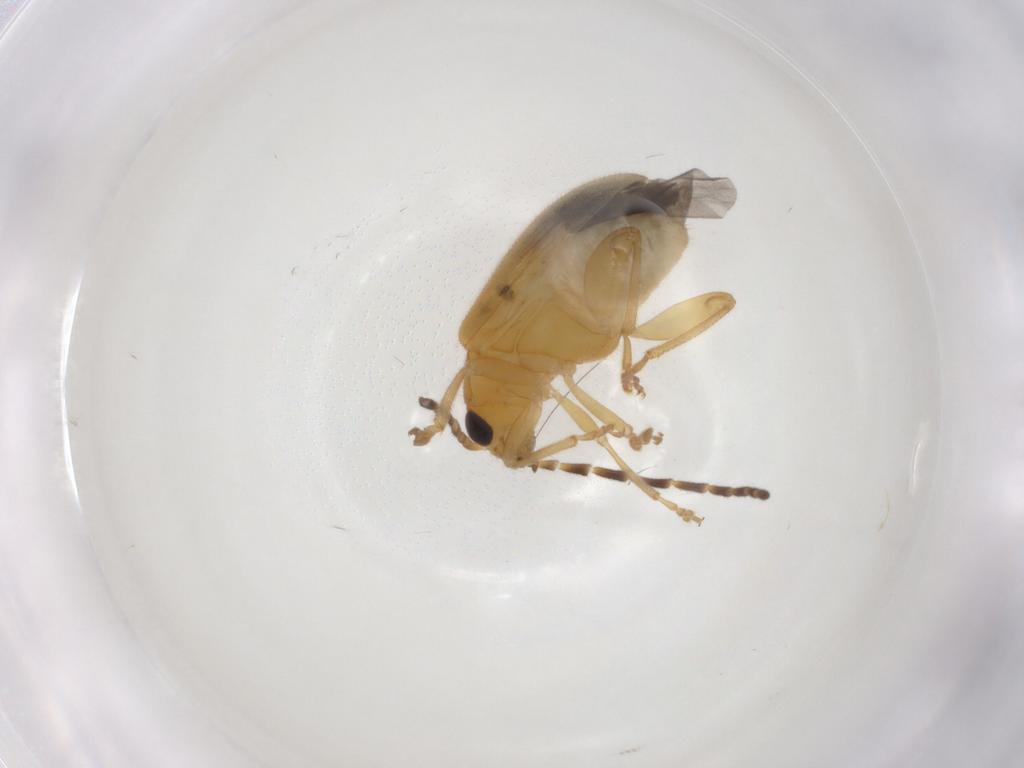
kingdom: Animalia
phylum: Arthropoda
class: Insecta
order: Coleoptera
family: Chrysomelidae
